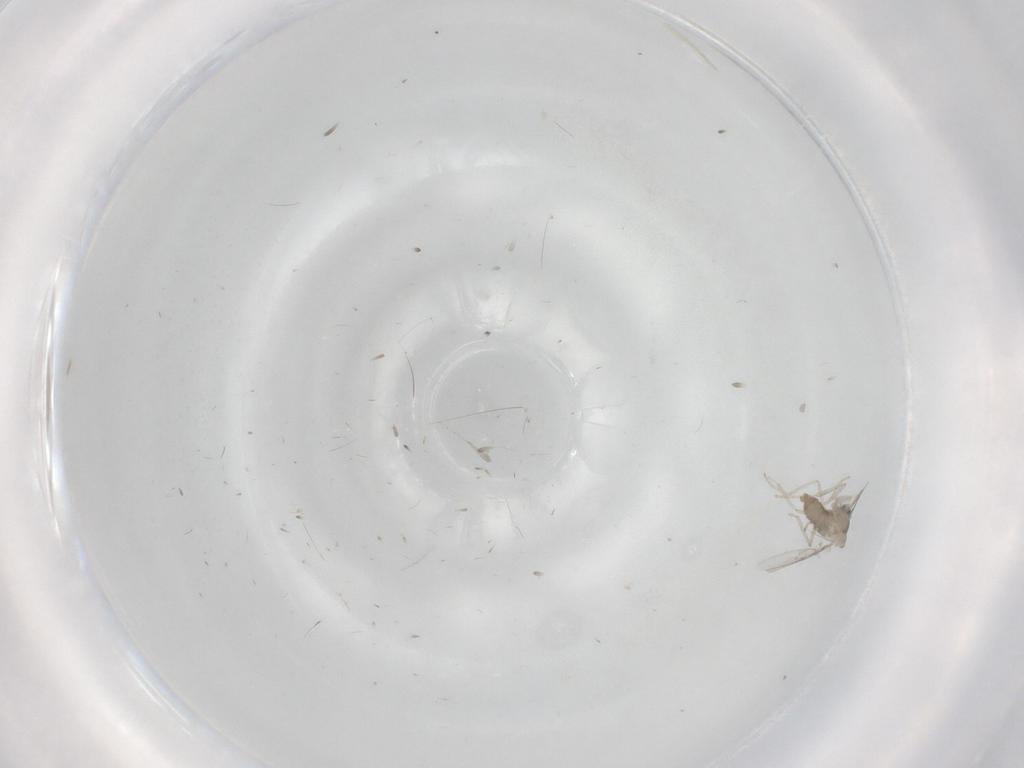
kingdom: Animalia
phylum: Arthropoda
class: Insecta
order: Diptera
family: Cecidomyiidae
